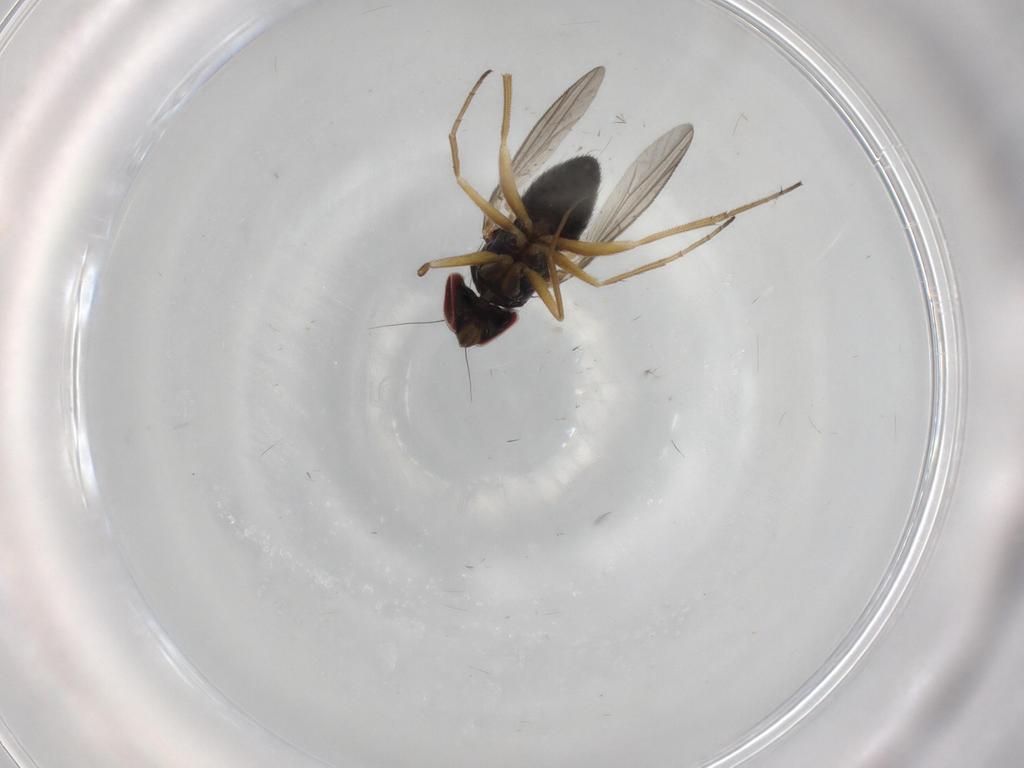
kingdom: Animalia
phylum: Arthropoda
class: Insecta
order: Diptera
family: Dolichopodidae
